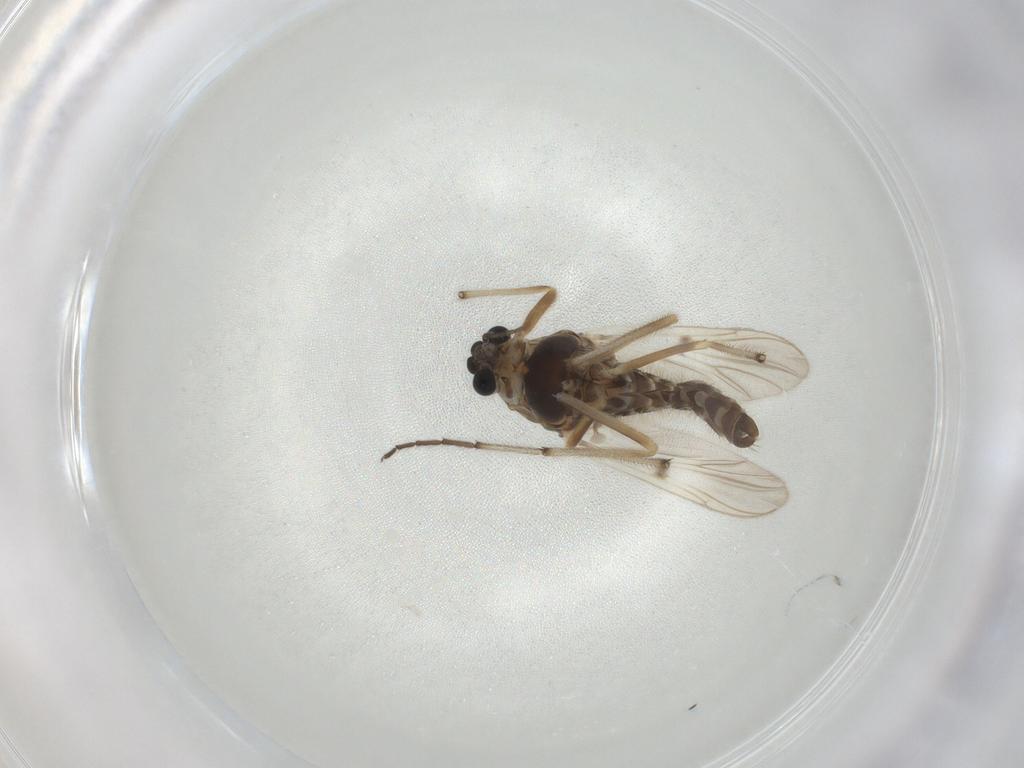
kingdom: Animalia
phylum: Arthropoda
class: Insecta
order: Diptera
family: Chironomidae
